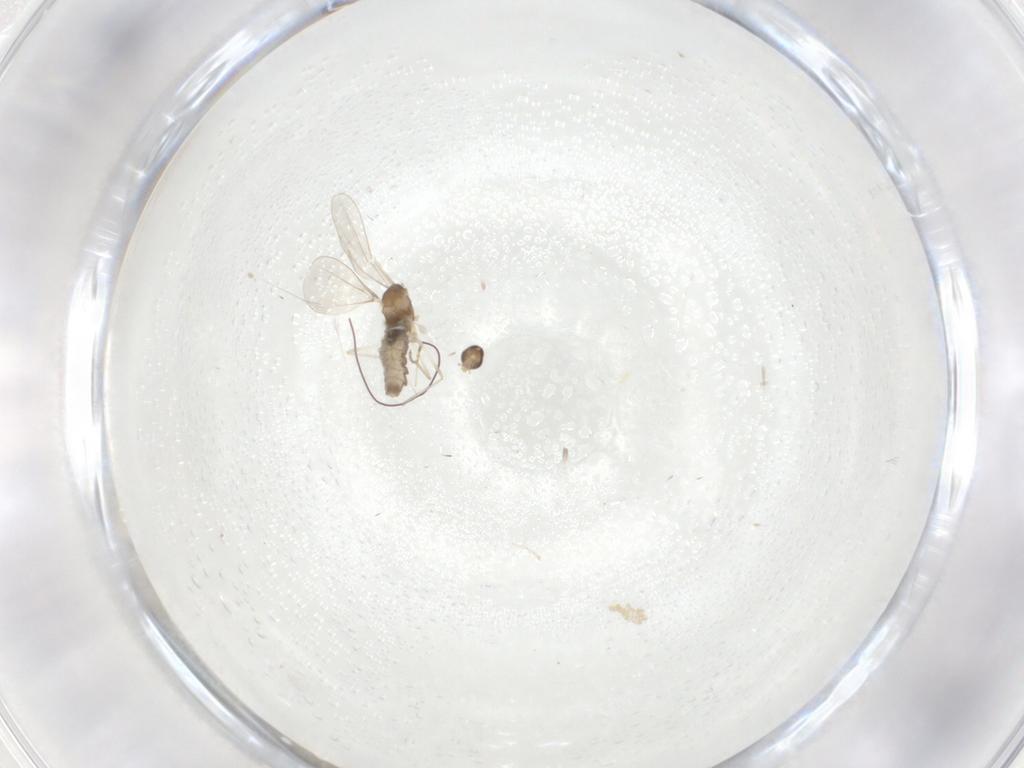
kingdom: Animalia
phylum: Arthropoda
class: Insecta
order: Diptera
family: Cecidomyiidae
